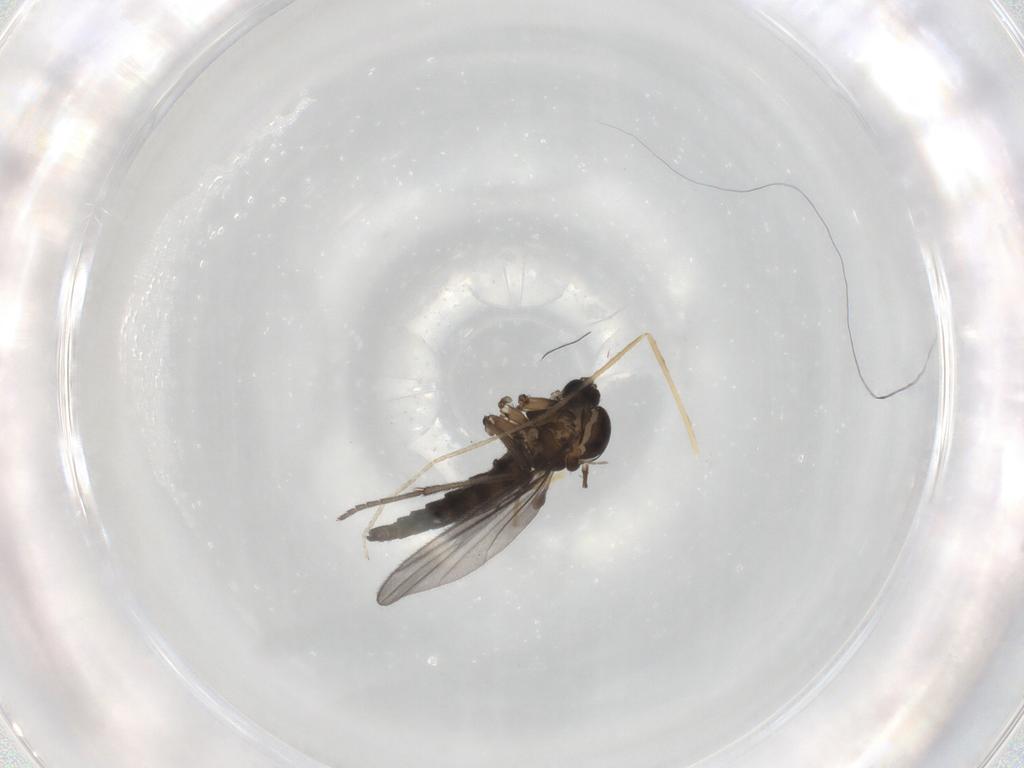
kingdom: Animalia
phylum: Arthropoda
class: Insecta
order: Diptera
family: Sciaridae
